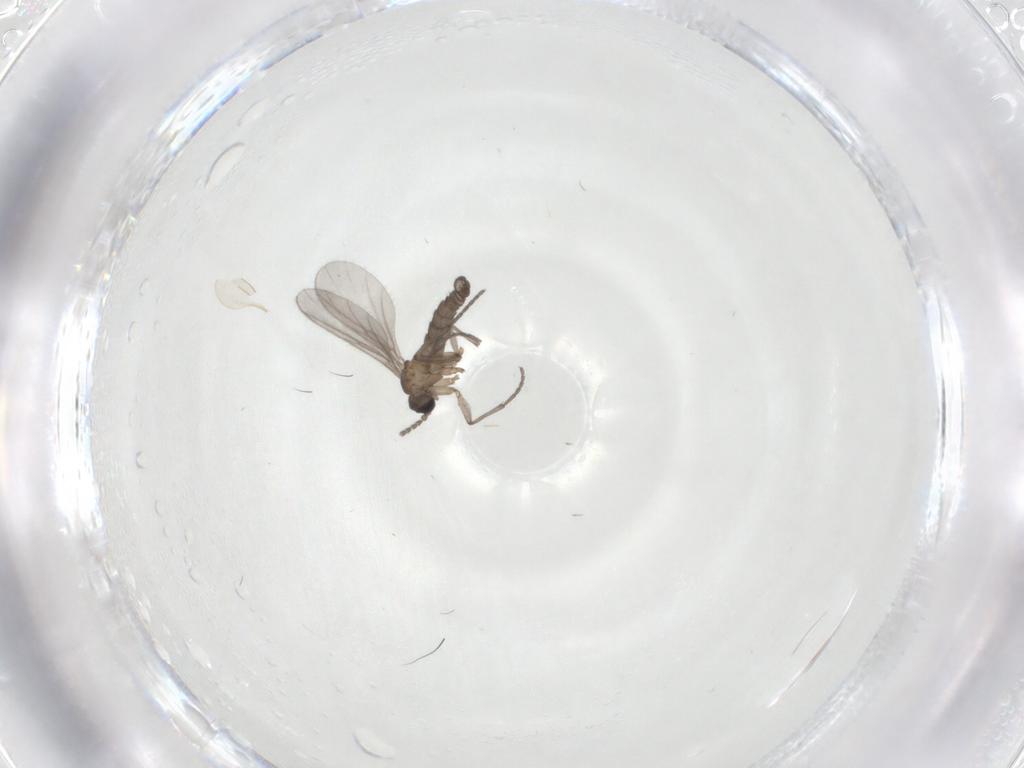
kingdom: Animalia
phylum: Arthropoda
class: Insecta
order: Diptera
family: Sciaridae
